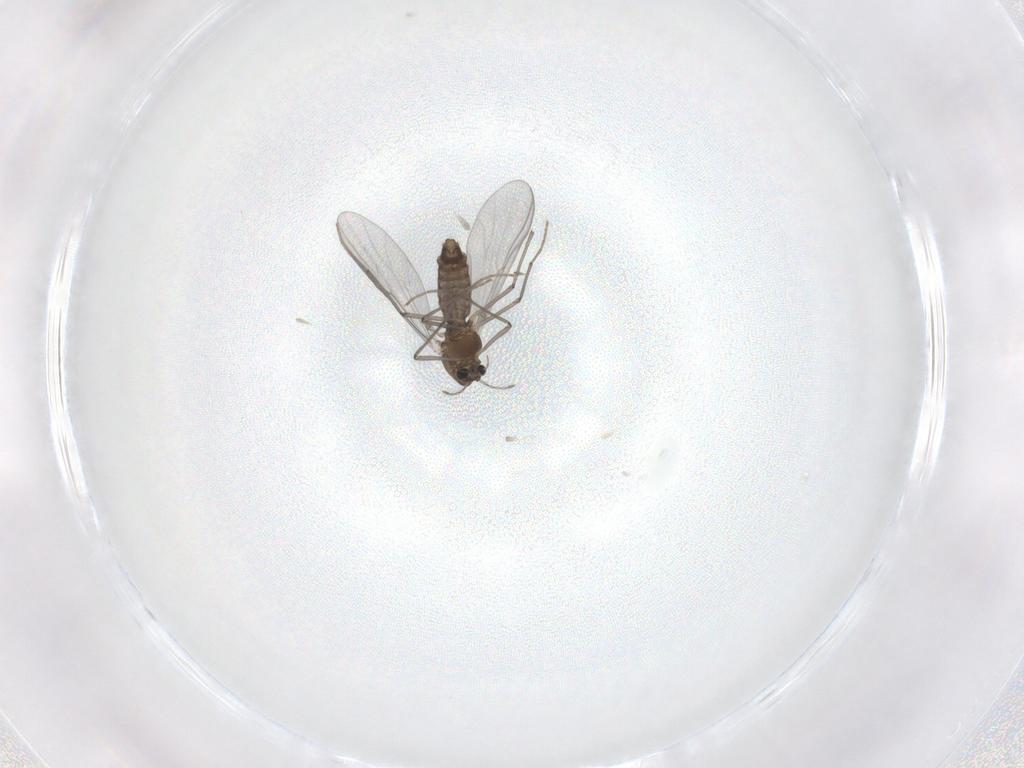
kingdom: Animalia
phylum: Arthropoda
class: Insecta
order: Diptera
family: Chironomidae
